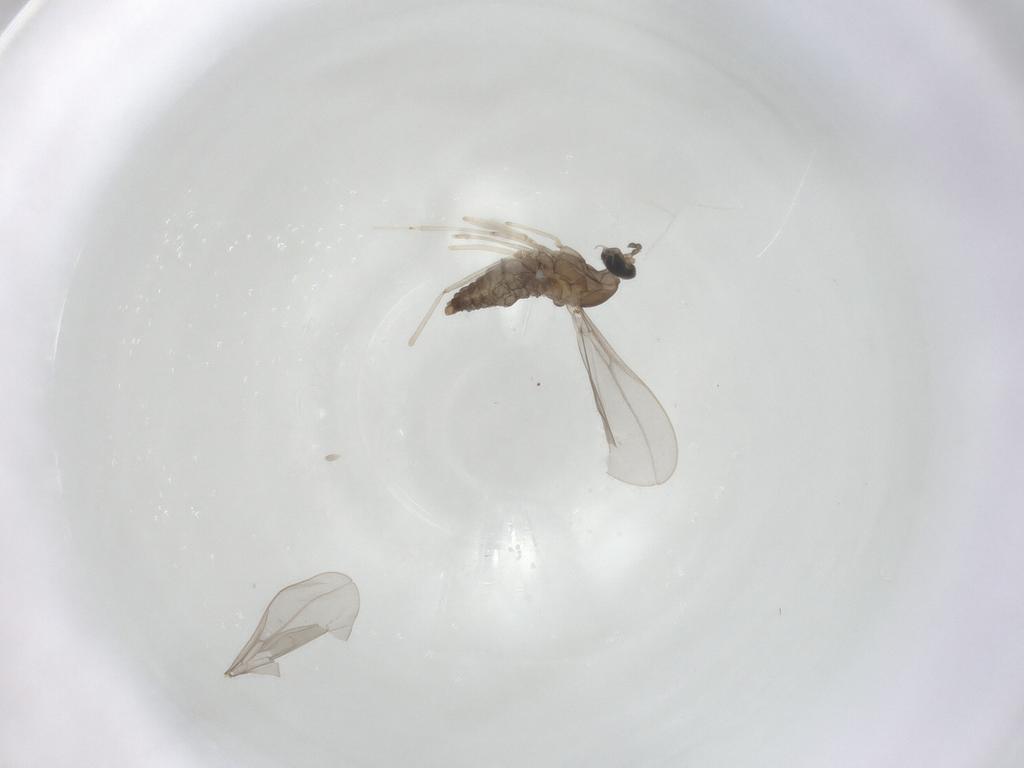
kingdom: Animalia
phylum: Arthropoda
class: Insecta
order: Diptera
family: Cecidomyiidae
